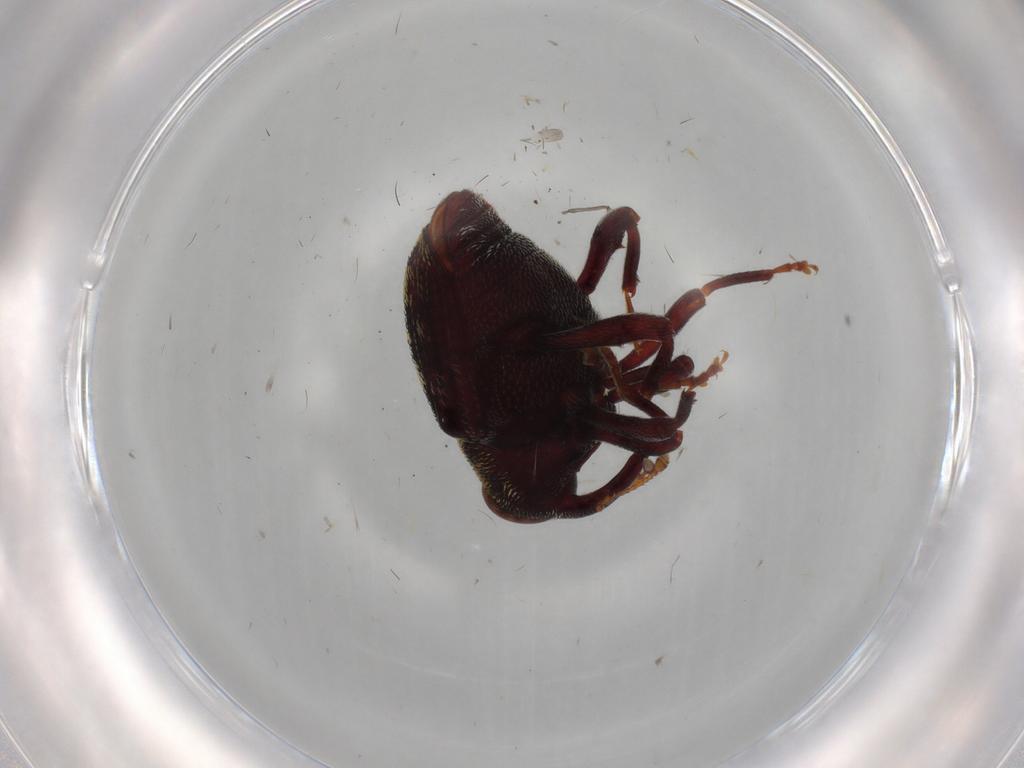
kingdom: Animalia
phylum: Arthropoda
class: Insecta
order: Coleoptera
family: Curculionidae
